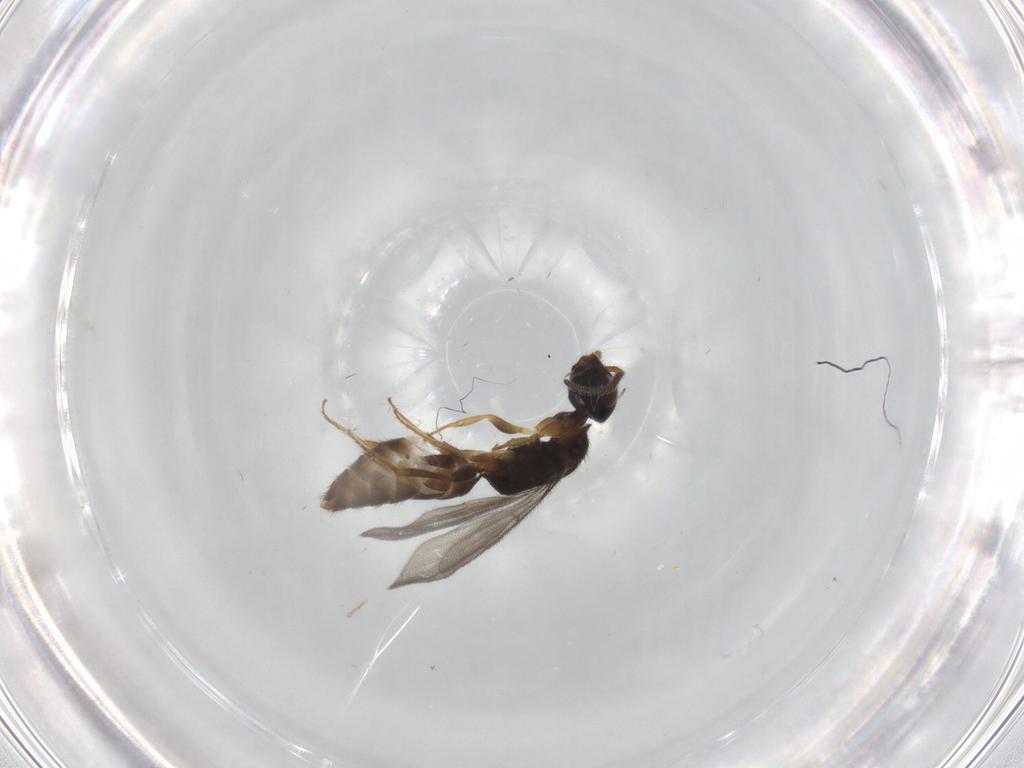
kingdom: Animalia
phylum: Arthropoda
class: Insecta
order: Hymenoptera
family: Bethylidae
